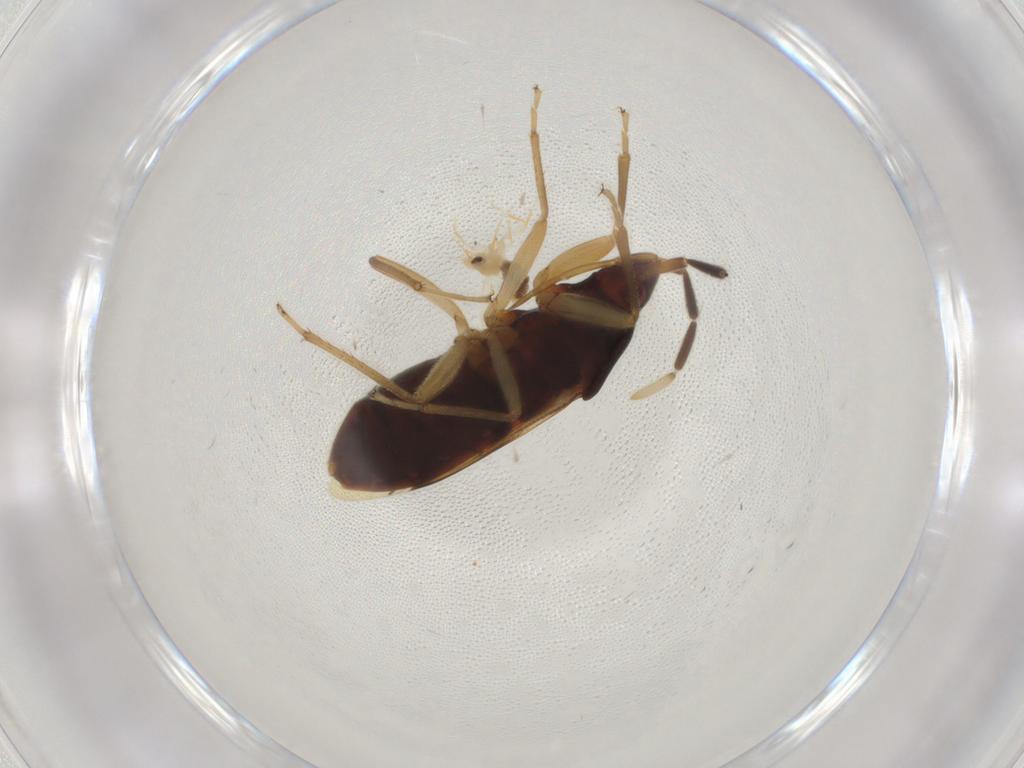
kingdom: Animalia
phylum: Arthropoda
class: Insecta
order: Hemiptera
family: Rhyparochromidae
